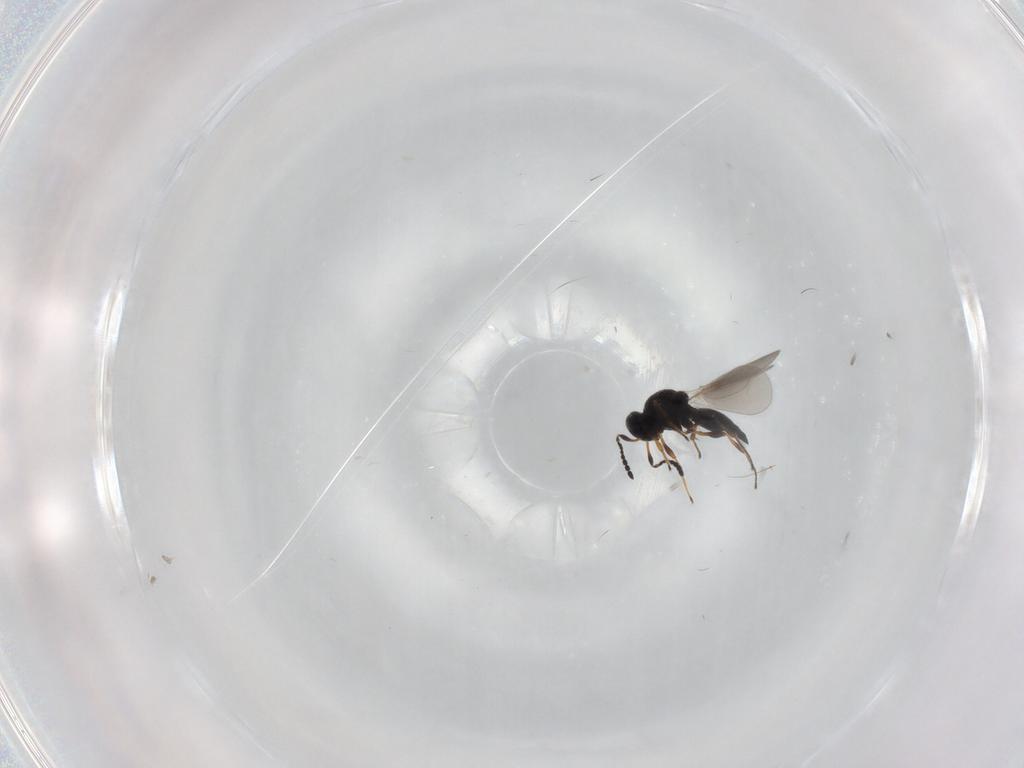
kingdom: Animalia
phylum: Arthropoda
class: Insecta
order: Hymenoptera
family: Platygastridae
